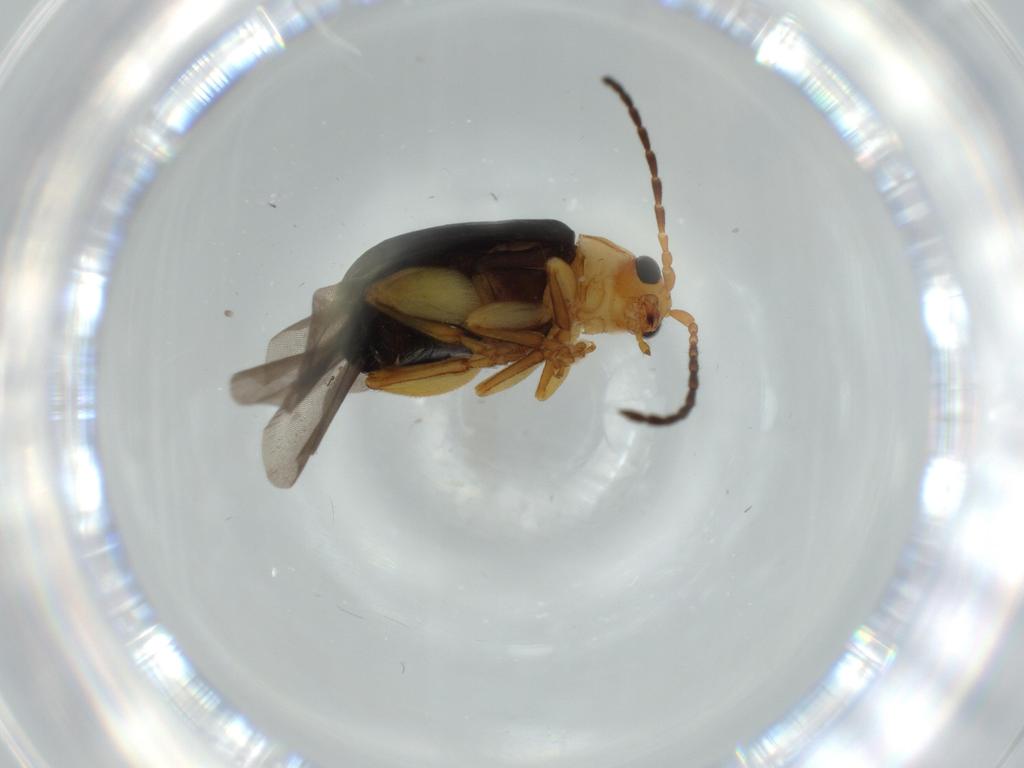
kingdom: Animalia
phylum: Arthropoda
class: Insecta
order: Coleoptera
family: Chrysomelidae
